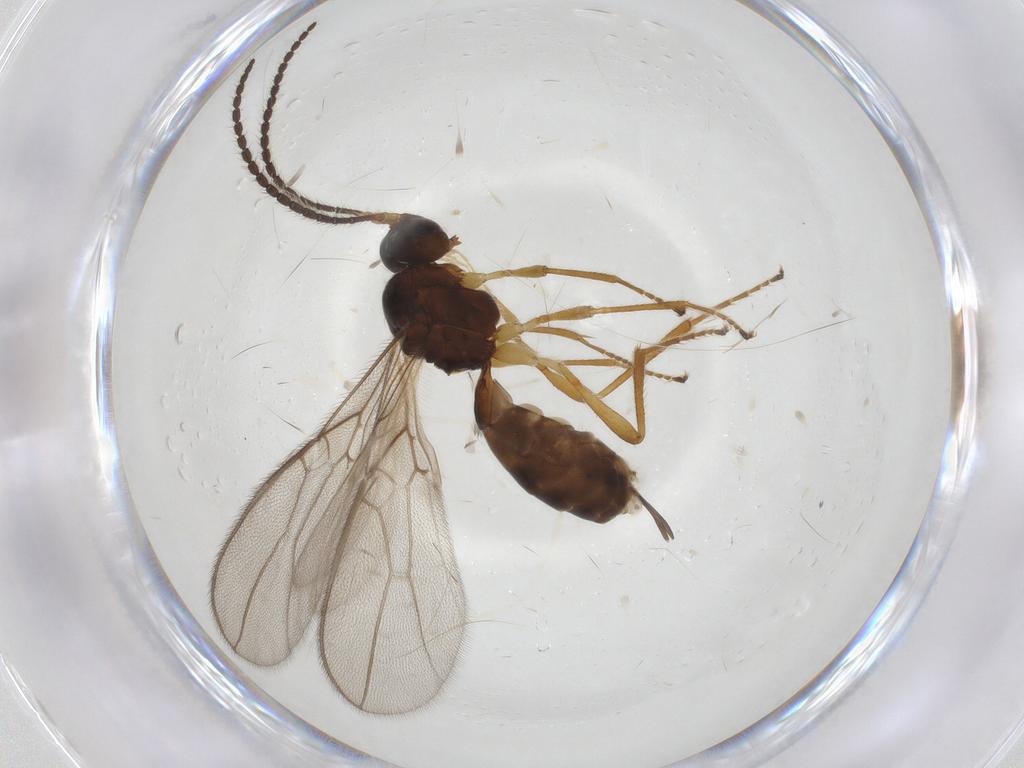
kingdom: Animalia
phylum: Arthropoda
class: Insecta
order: Hymenoptera
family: Braconidae
